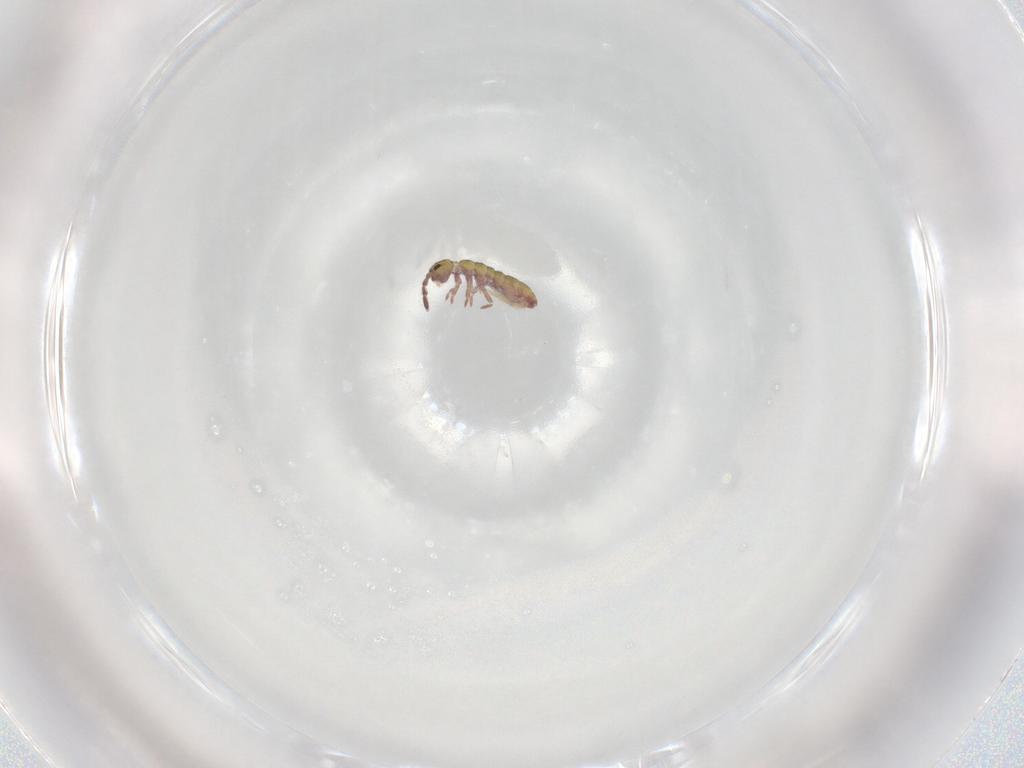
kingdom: Animalia
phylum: Arthropoda
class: Collembola
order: Entomobryomorpha
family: Isotomidae
